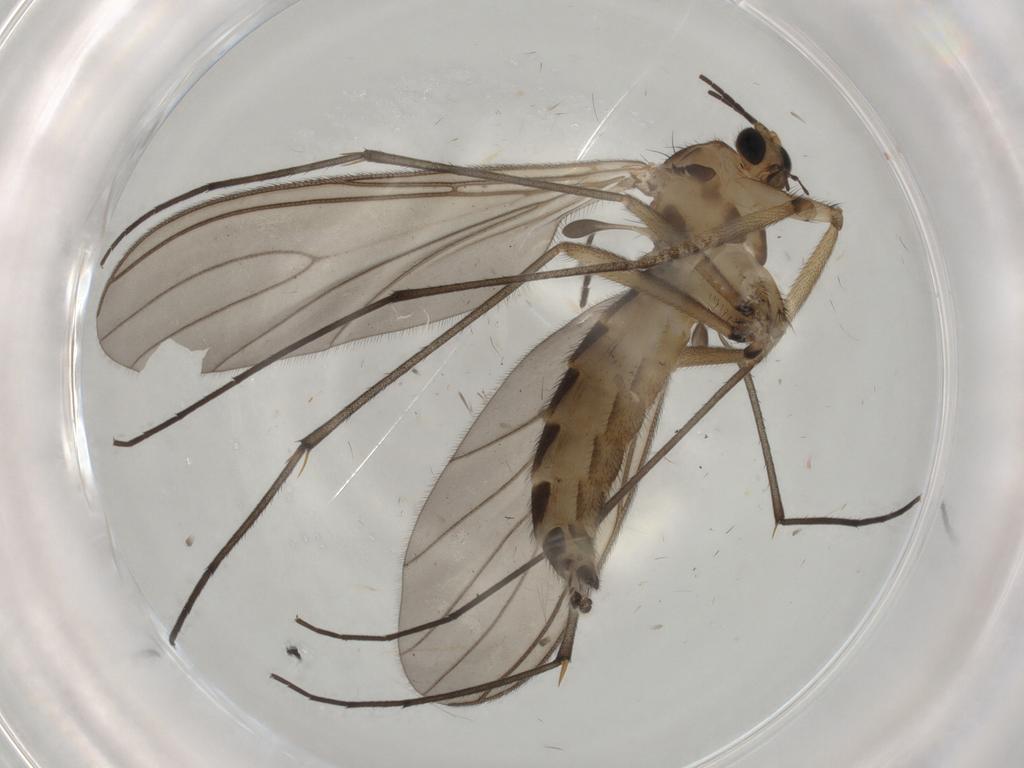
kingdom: Animalia
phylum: Arthropoda
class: Insecta
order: Diptera
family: Sciaridae
